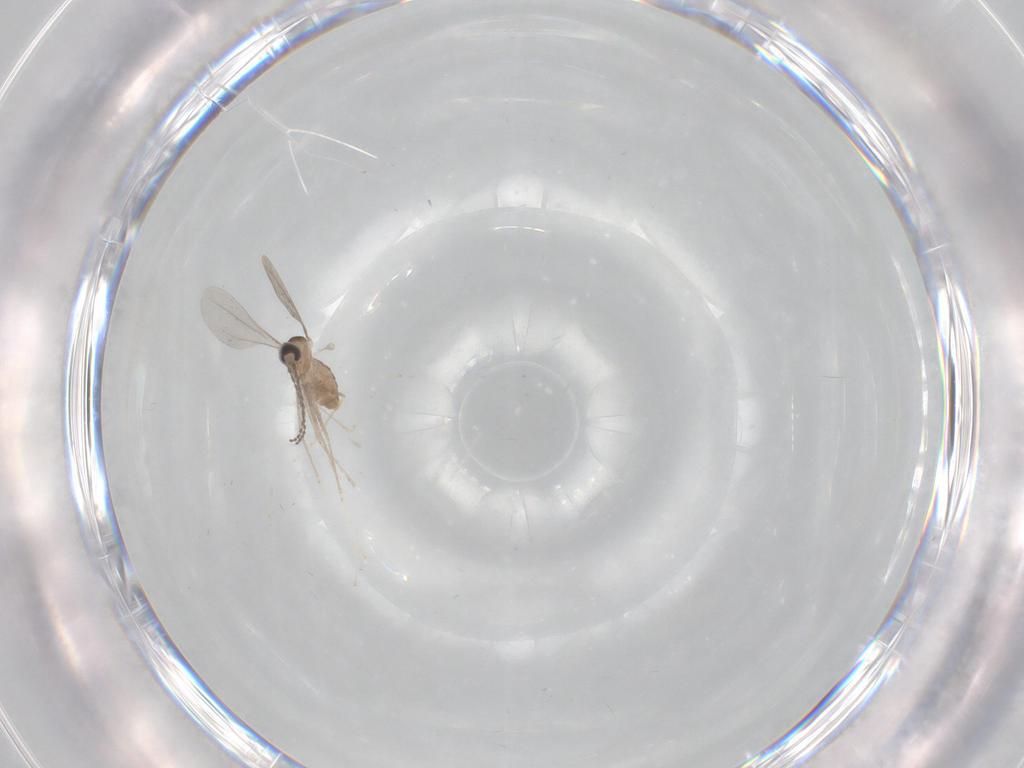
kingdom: Animalia
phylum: Arthropoda
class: Insecta
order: Diptera
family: Cecidomyiidae
